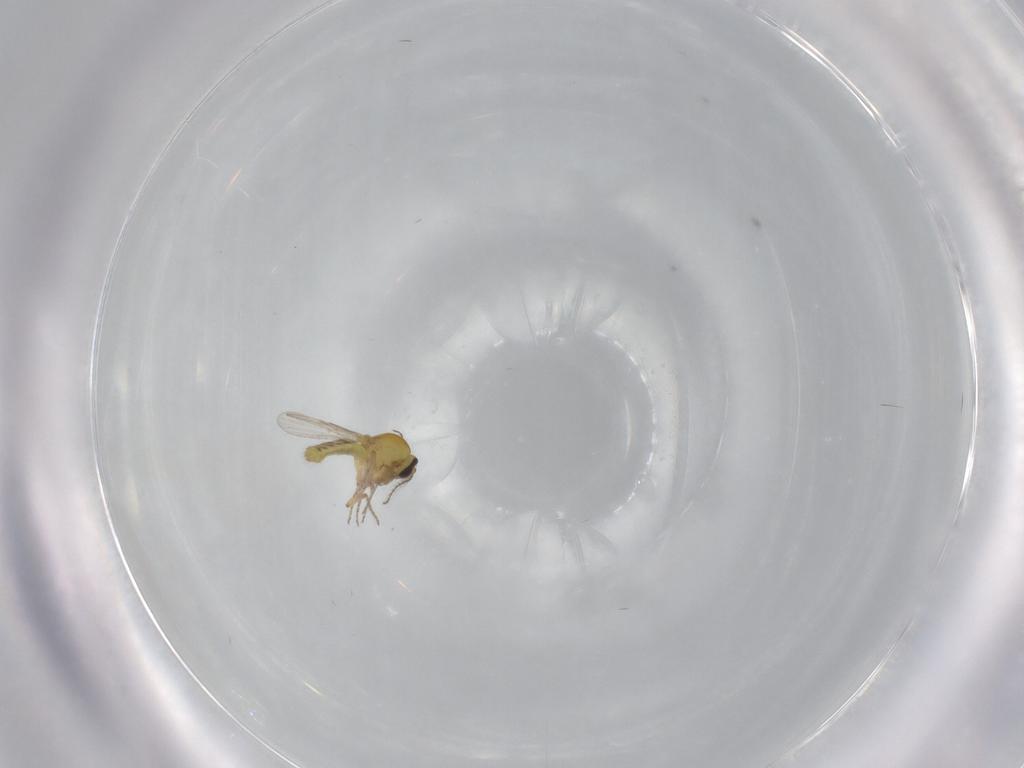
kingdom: Animalia
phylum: Arthropoda
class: Insecta
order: Diptera
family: Ceratopogonidae
